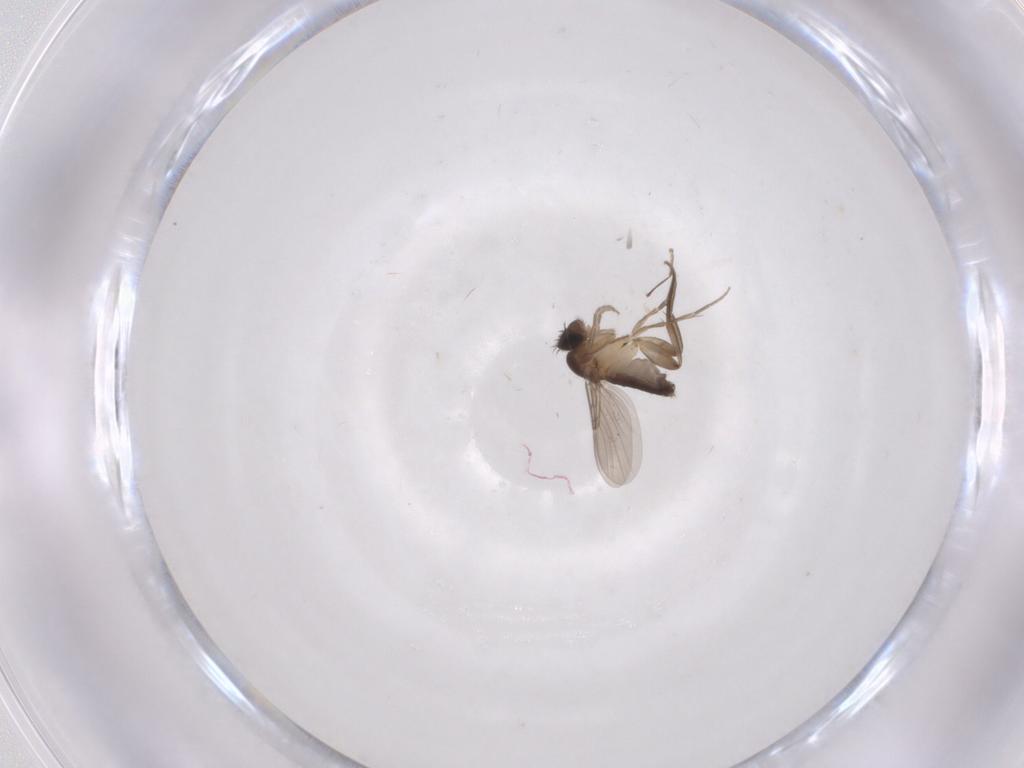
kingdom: Animalia
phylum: Arthropoda
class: Insecta
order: Diptera
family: Phoridae
